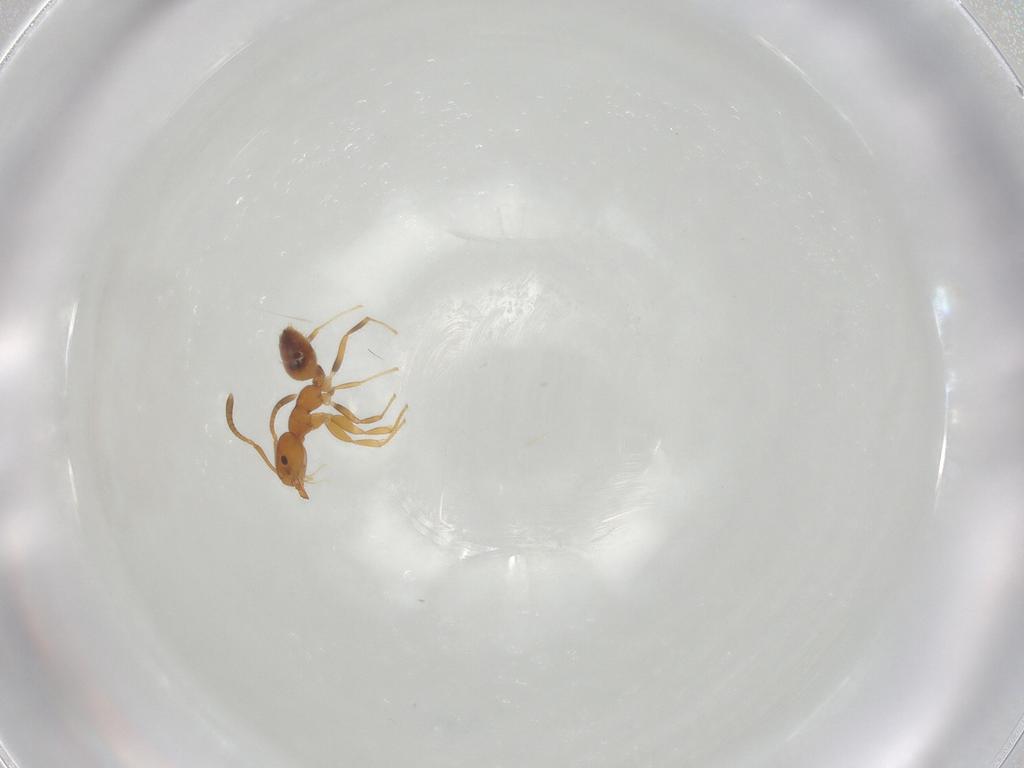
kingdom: Animalia
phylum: Arthropoda
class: Insecta
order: Hymenoptera
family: Formicidae
